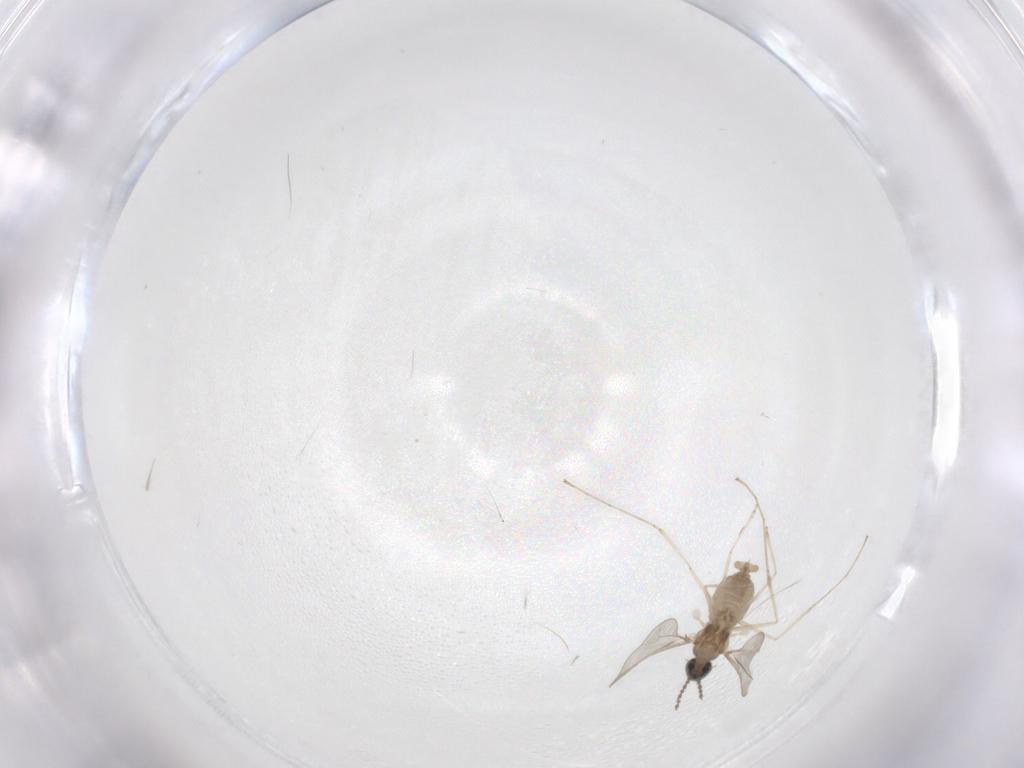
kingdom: Animalia
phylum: Arthropoda
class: Insecta
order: Diptera
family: Cecidomyiidae
